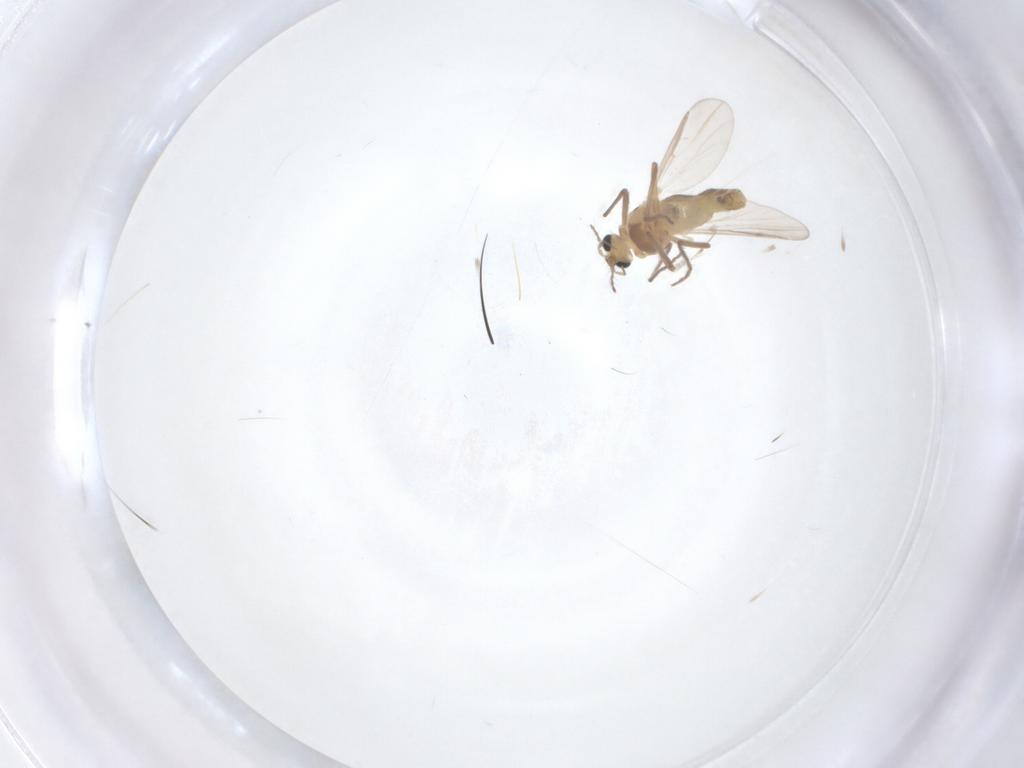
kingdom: Animalia
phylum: Arthropoda
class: Insecta
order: Diptera
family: Chironomidae
